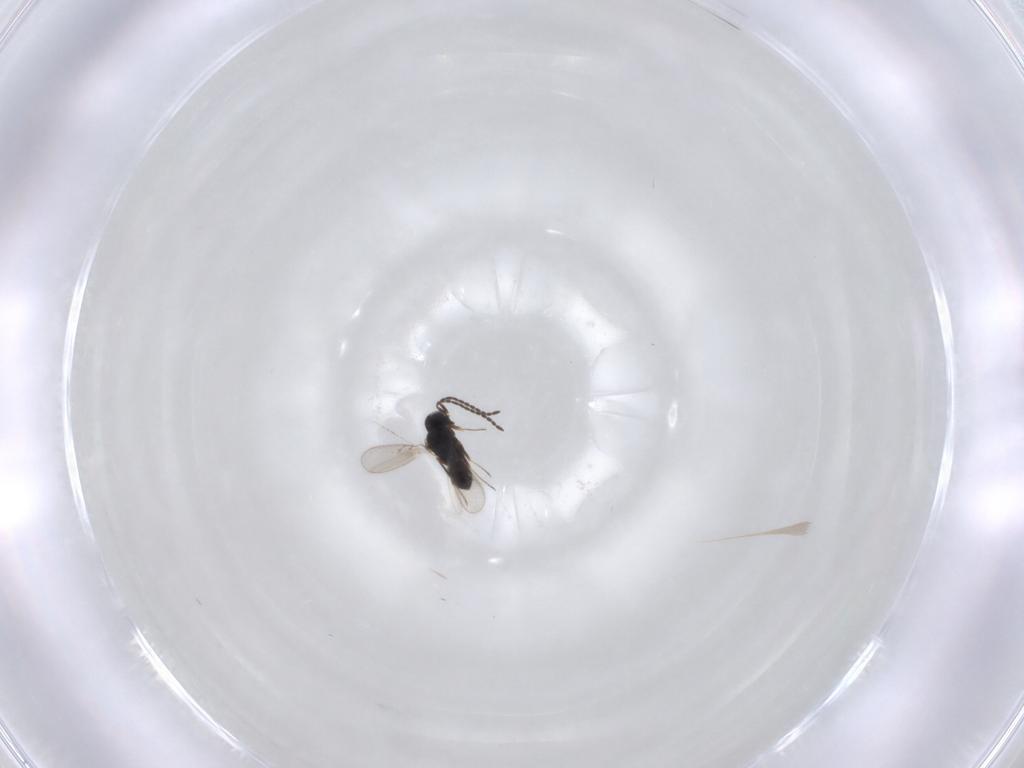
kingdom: Animalia
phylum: Arthropoda
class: Insecta
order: Hymenoptera
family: Scelionidae
